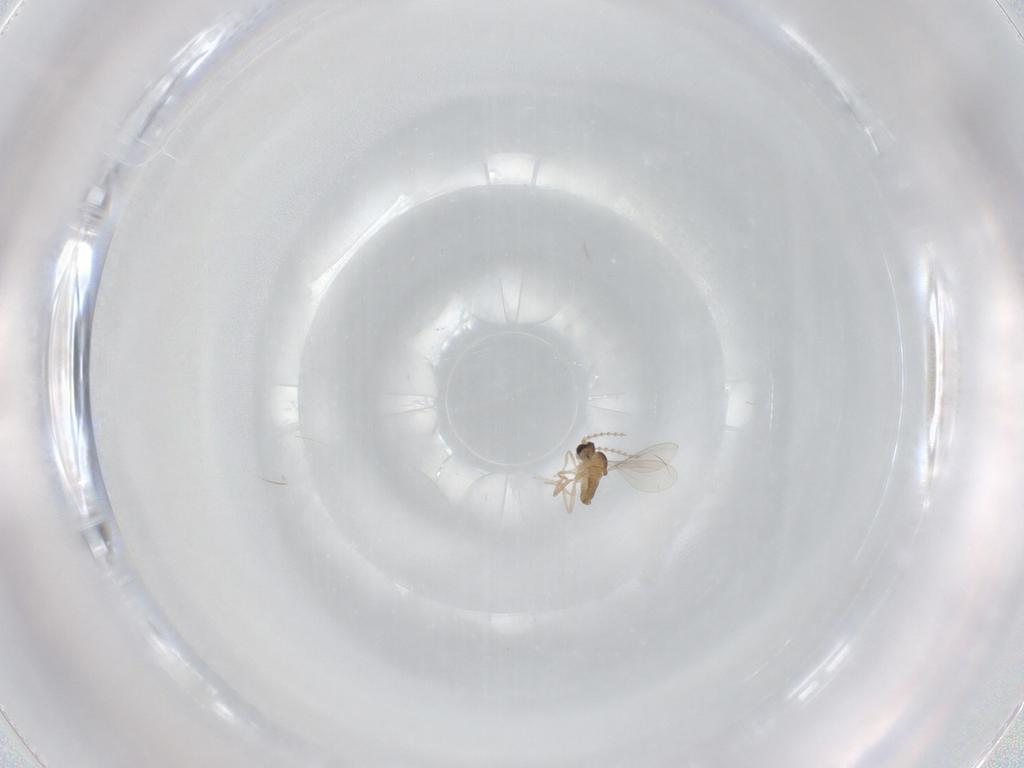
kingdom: Animalia
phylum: Arthropoda
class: Insecta
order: Diptera
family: Cecidomyiidae
